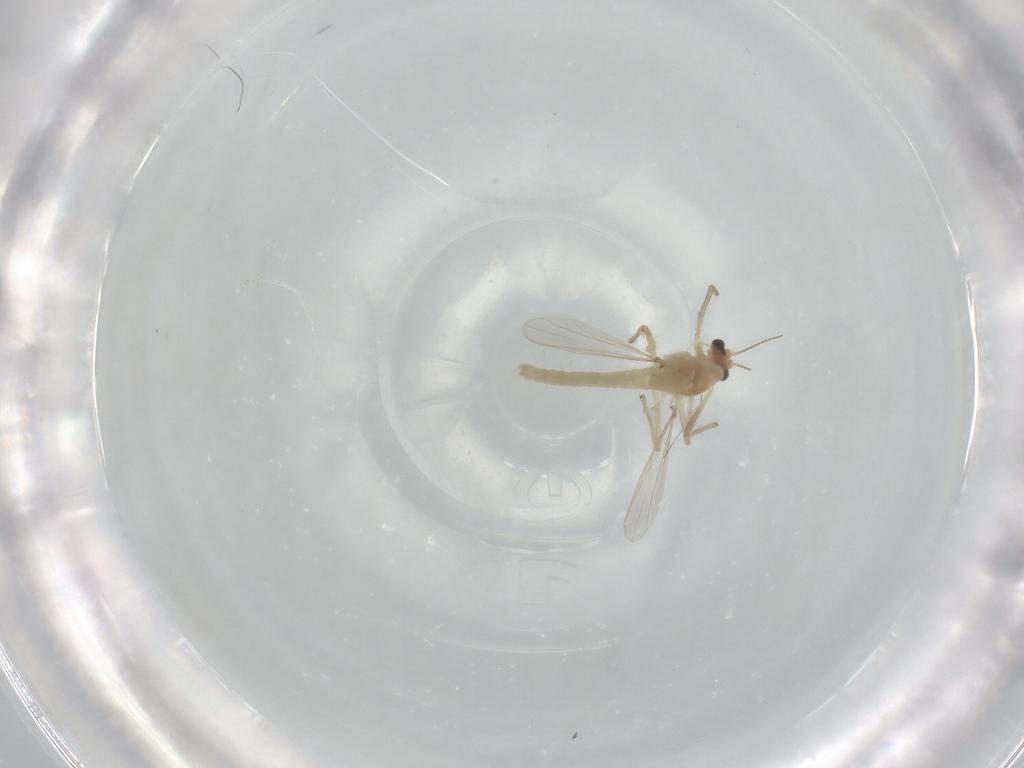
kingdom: Animalia
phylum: Arthropoda
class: Insecta
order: Diptera
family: Chironomidae
